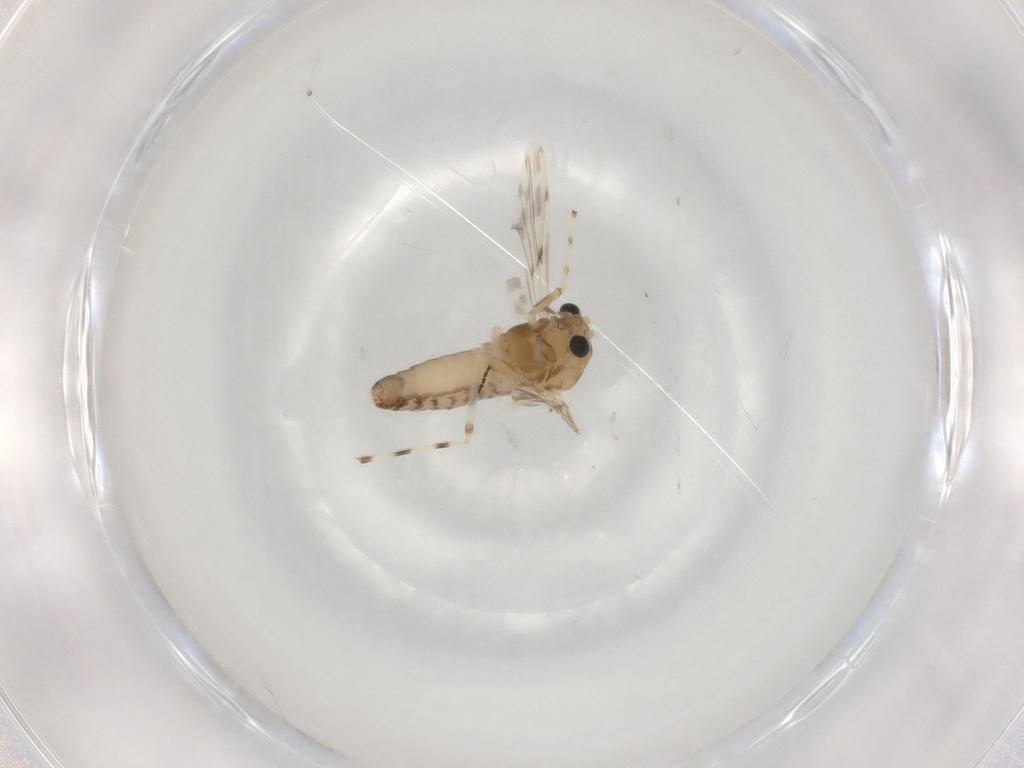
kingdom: Animalia
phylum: Arthropoda
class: Insecta
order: Diptera
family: Chironomidae
